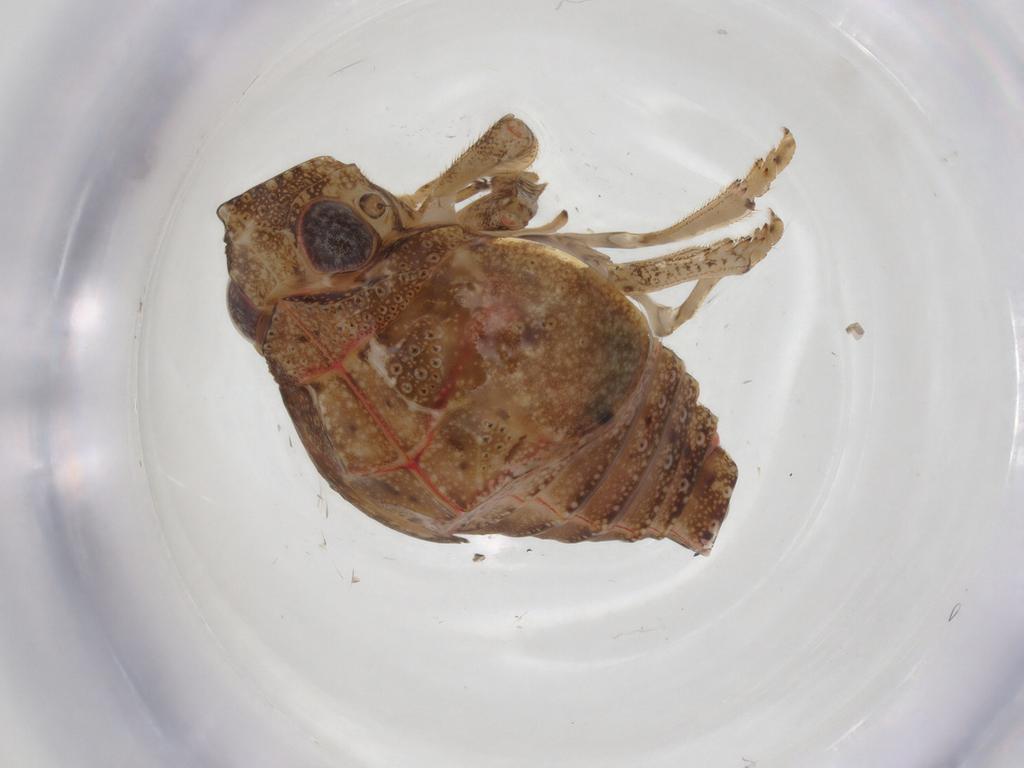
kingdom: Animalia
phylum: Arthropoda
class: Insecta
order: Hemiptera
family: Nogodinidae
